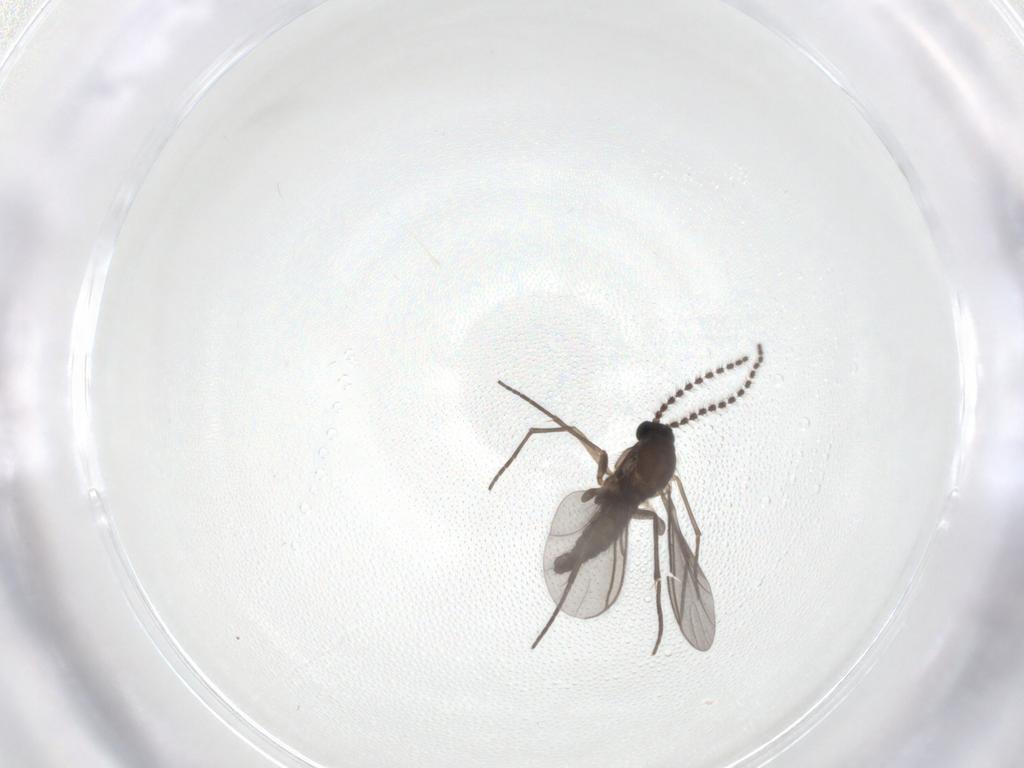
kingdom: Animalia
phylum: Arthropoda
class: Insecta
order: Diptera
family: Sciaridae
